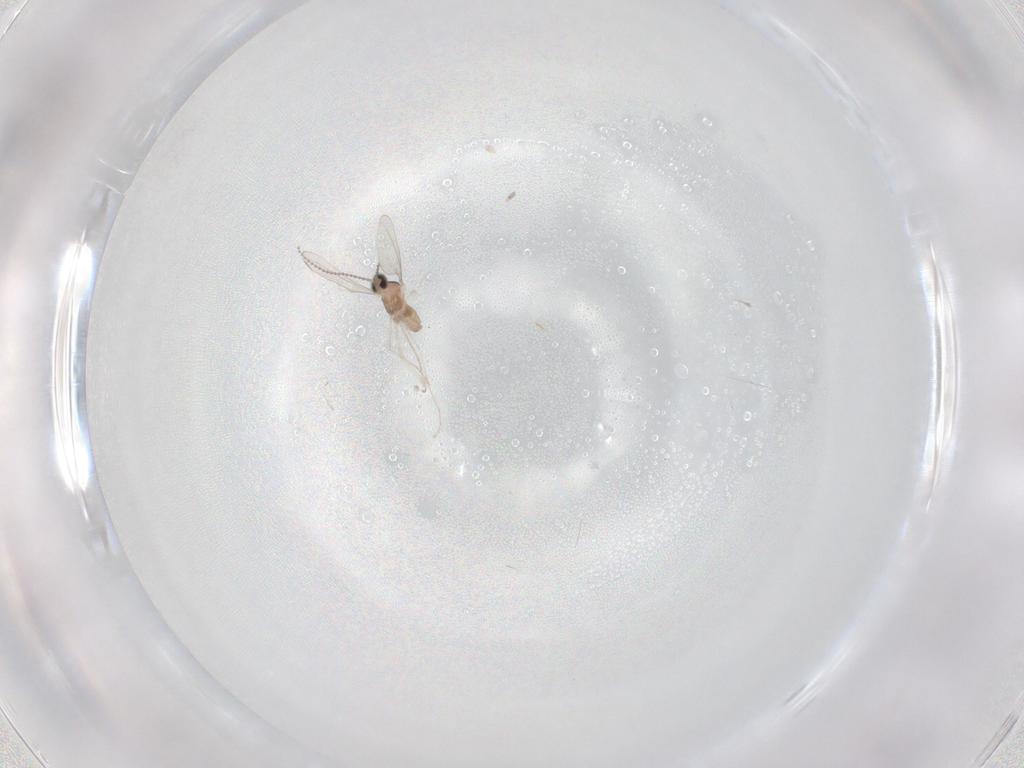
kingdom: Animalia
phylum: Arthropoda
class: Insecta
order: Diptera
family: Cecidomyiidae
